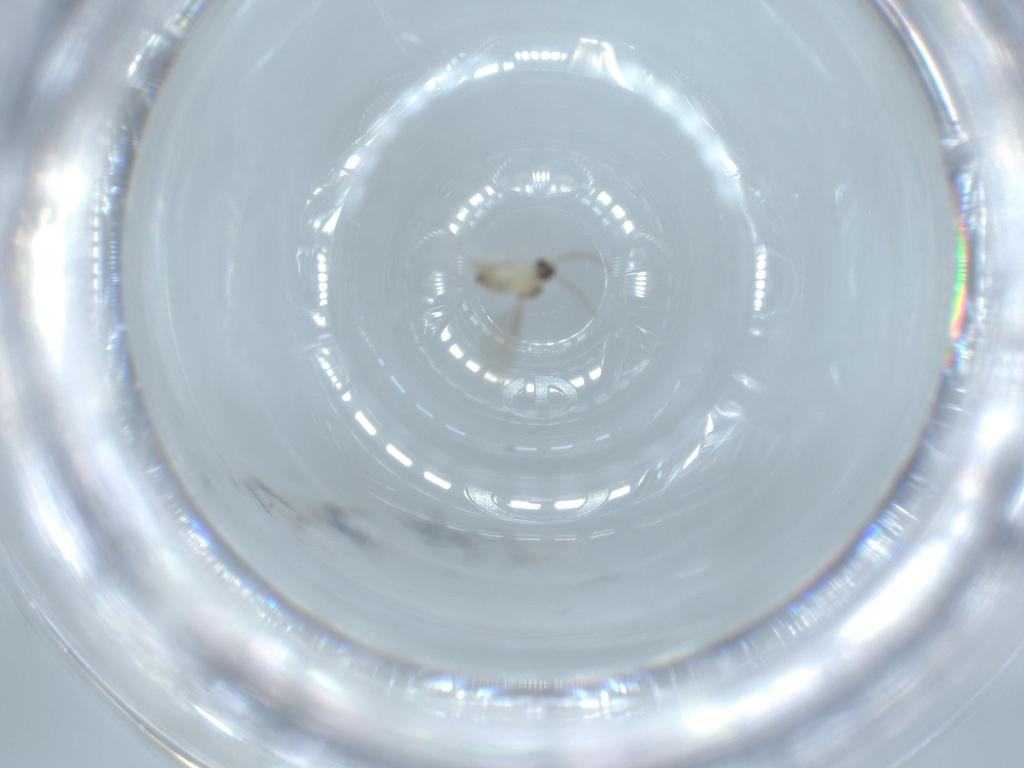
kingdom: Animalia
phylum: Arthropoda
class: Insecta
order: Diptera
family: Cecidomyiidae
